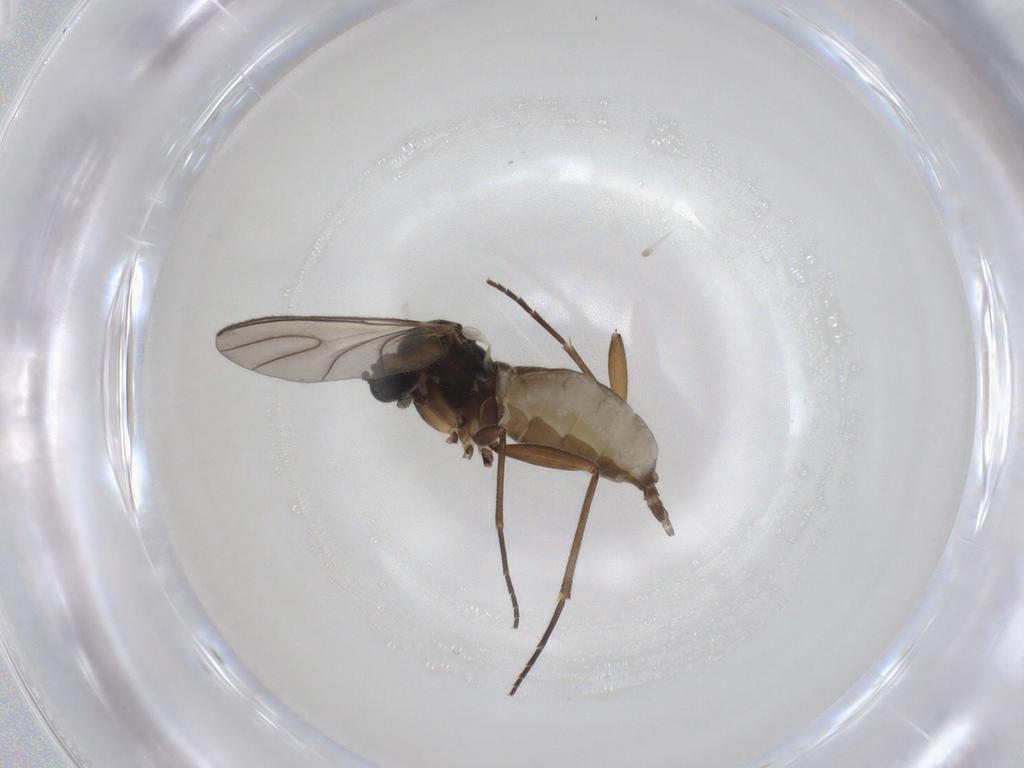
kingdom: Animalia
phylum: Arthropoda
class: Insecta
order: Diptera
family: Sciaridae
